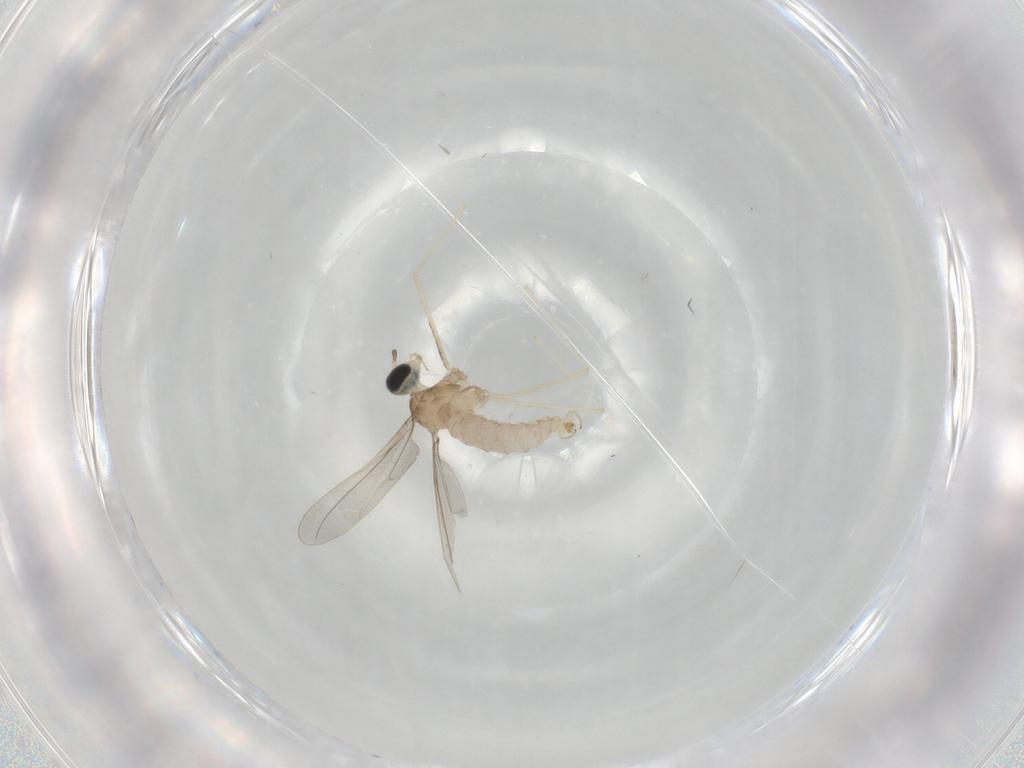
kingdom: Animalia
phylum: Arthropoda
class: Insecta
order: Diptera
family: Cecidomyiidae
